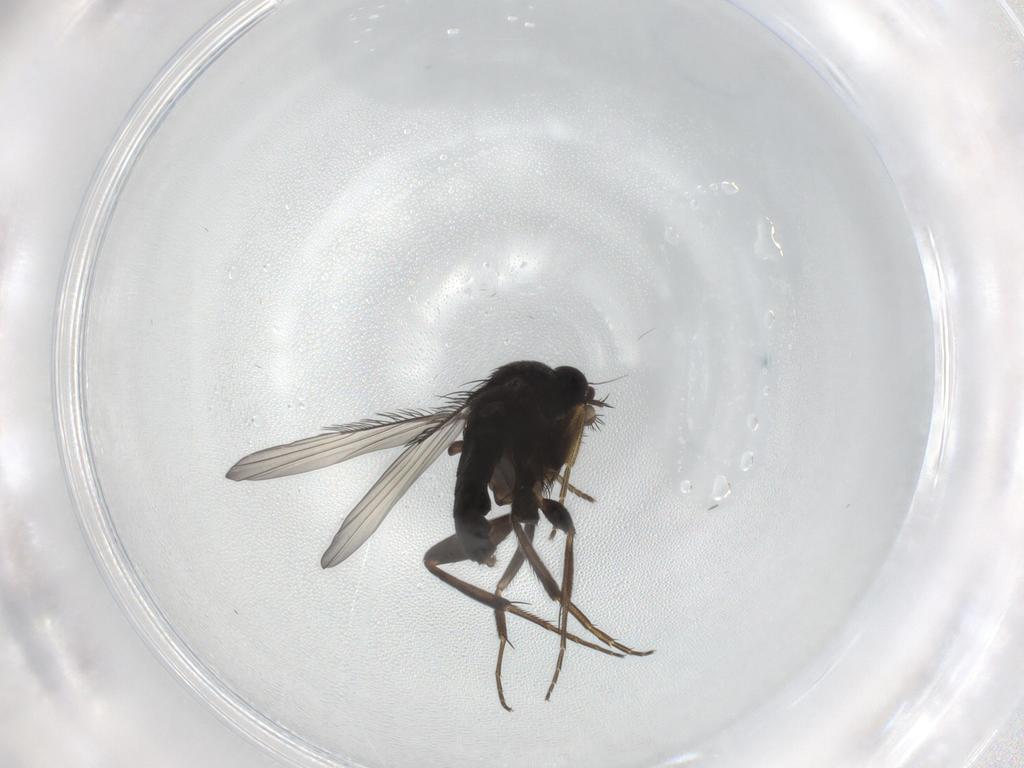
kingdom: Animalia
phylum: Arthropoda
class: Insecta
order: Diptera
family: Phoridae
